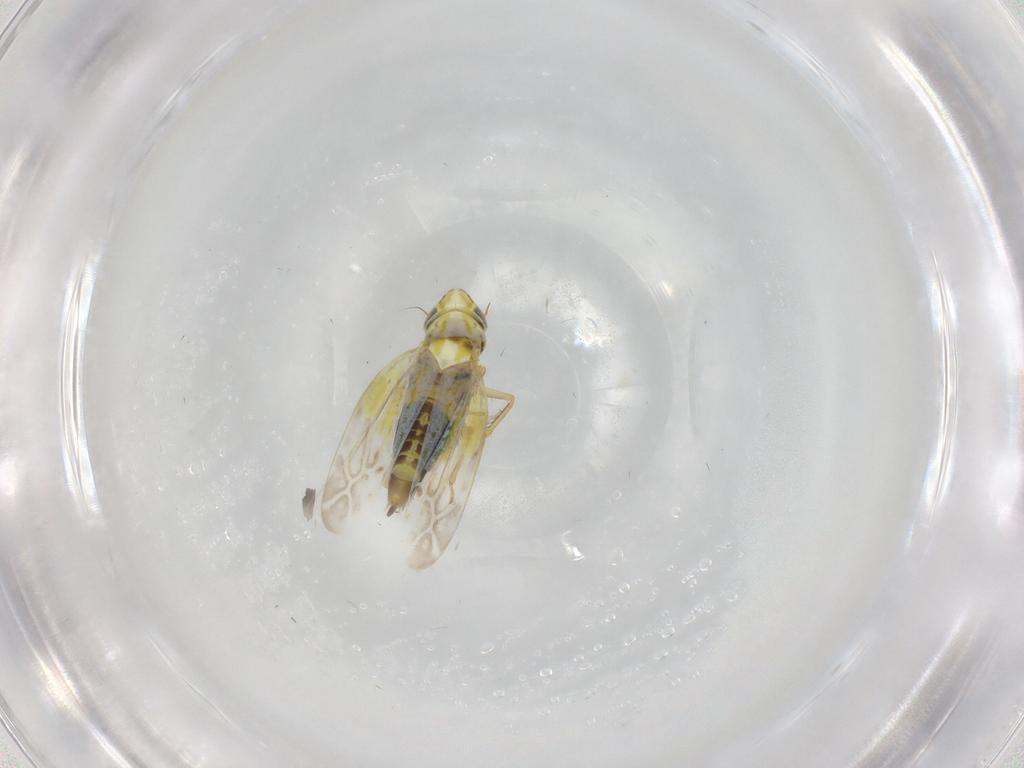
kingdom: Animalia
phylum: Arthropoda
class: Insecta
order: Hemiptera
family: Cicadellidae
